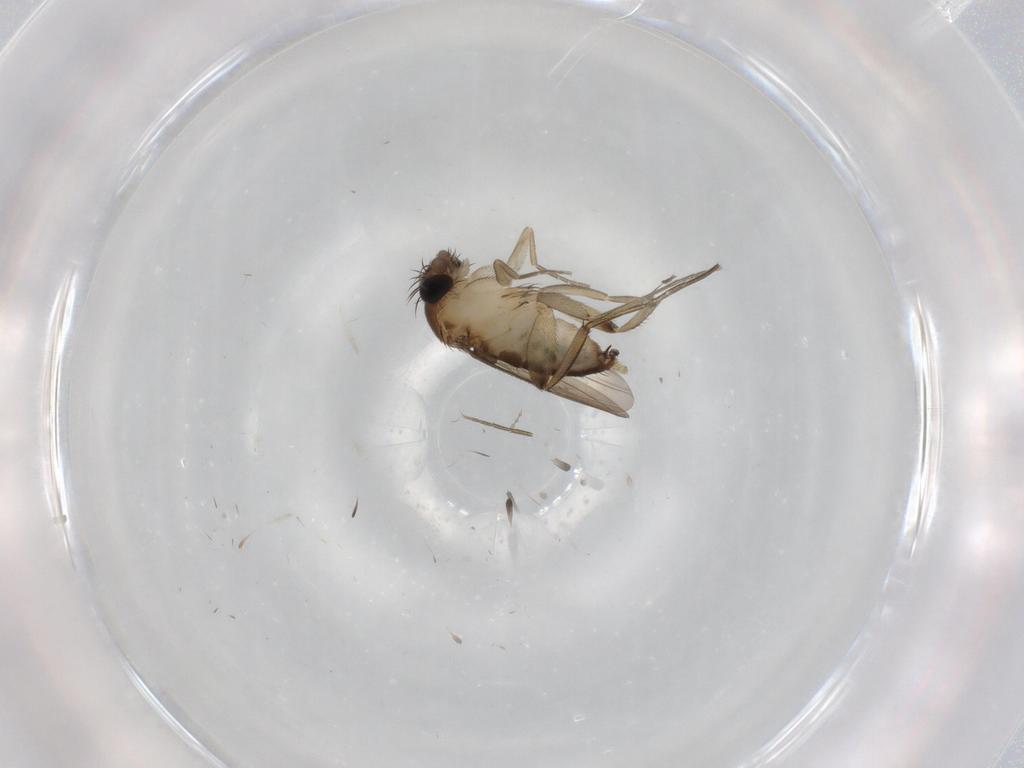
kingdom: Animalia
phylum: Arthropoda
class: Insecta
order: Diptera
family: Phoridae
